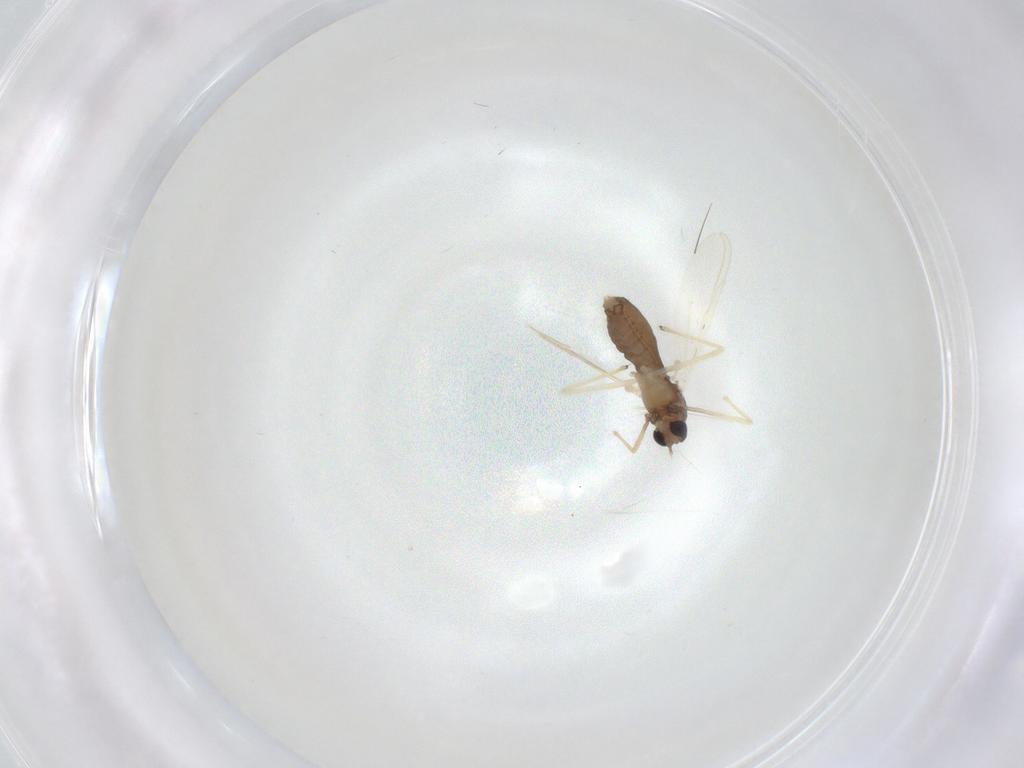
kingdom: Animalia
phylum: Arthropoda
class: Insecta
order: Diptera
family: Chironomidae
